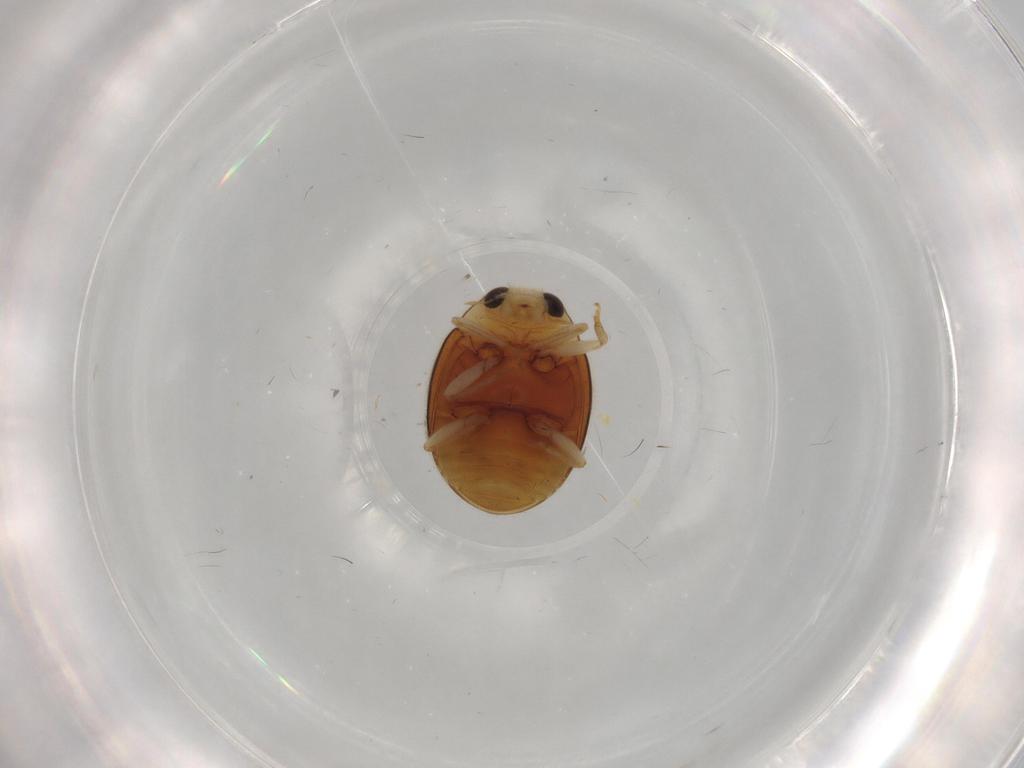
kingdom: Animalia
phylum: Arthropoda
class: Insecta
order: Coleoptera
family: Coccinellidae
